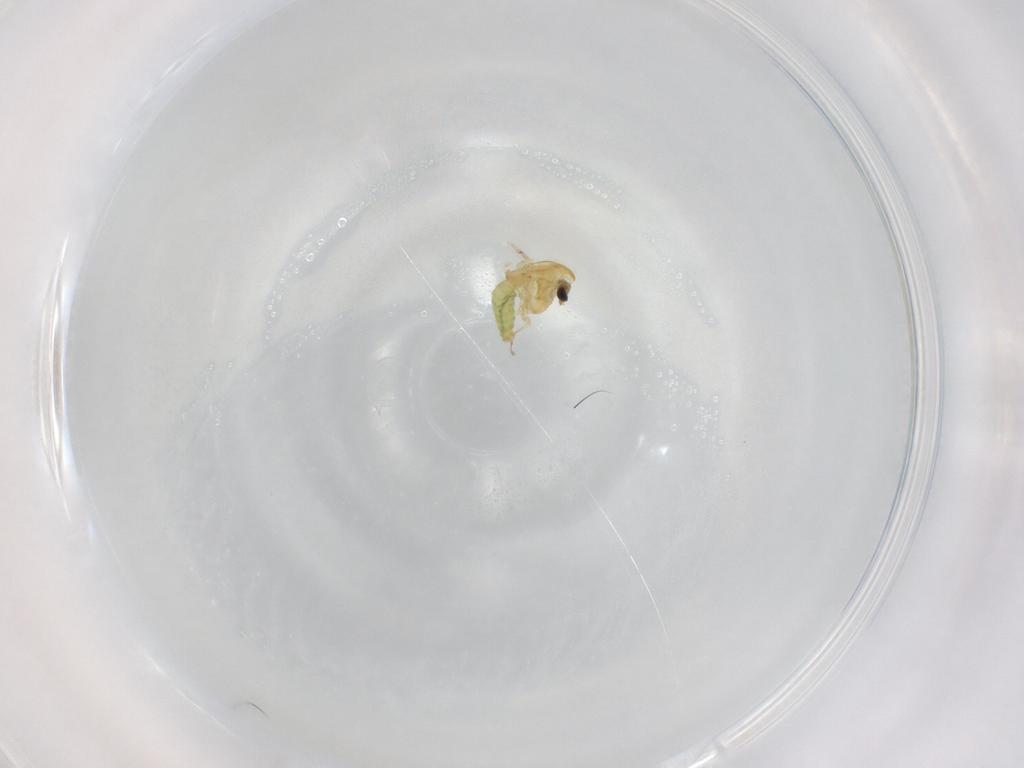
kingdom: Animalia
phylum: Arthropoda
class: Insecta
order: Diptera
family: Chironomidae
